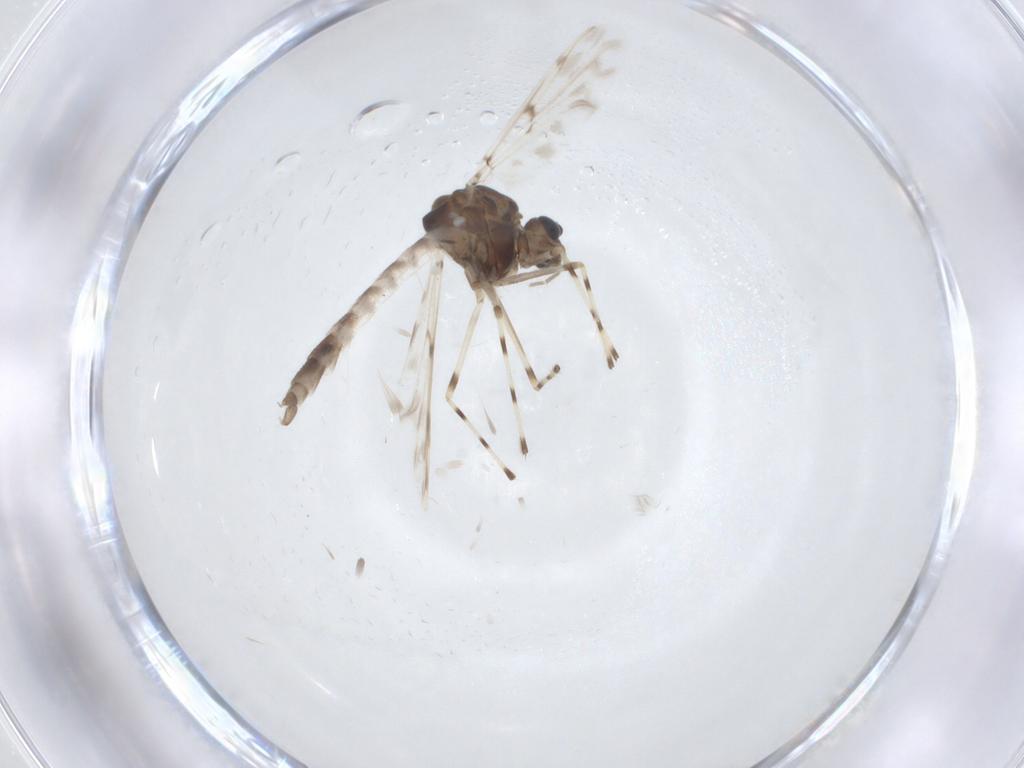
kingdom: Animalia
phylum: Arthropoda
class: Insecta
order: Diptera
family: Chironomidae
